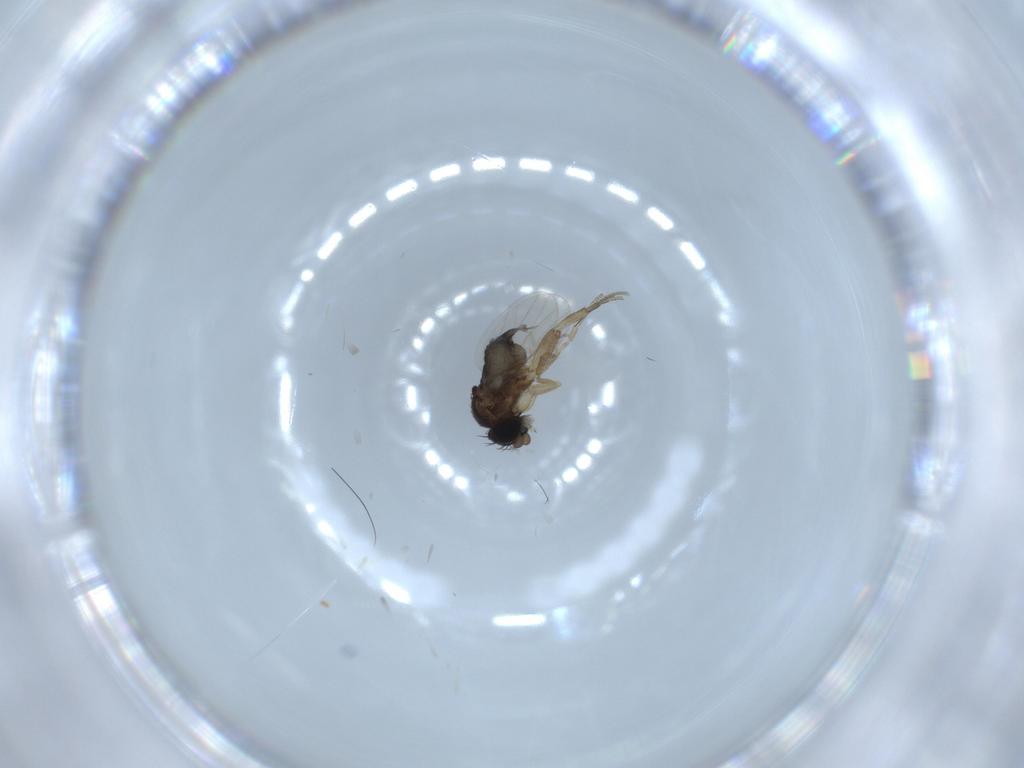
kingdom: Animalia
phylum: Arthropoda
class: Insecta
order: Diptera
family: Phoridae
